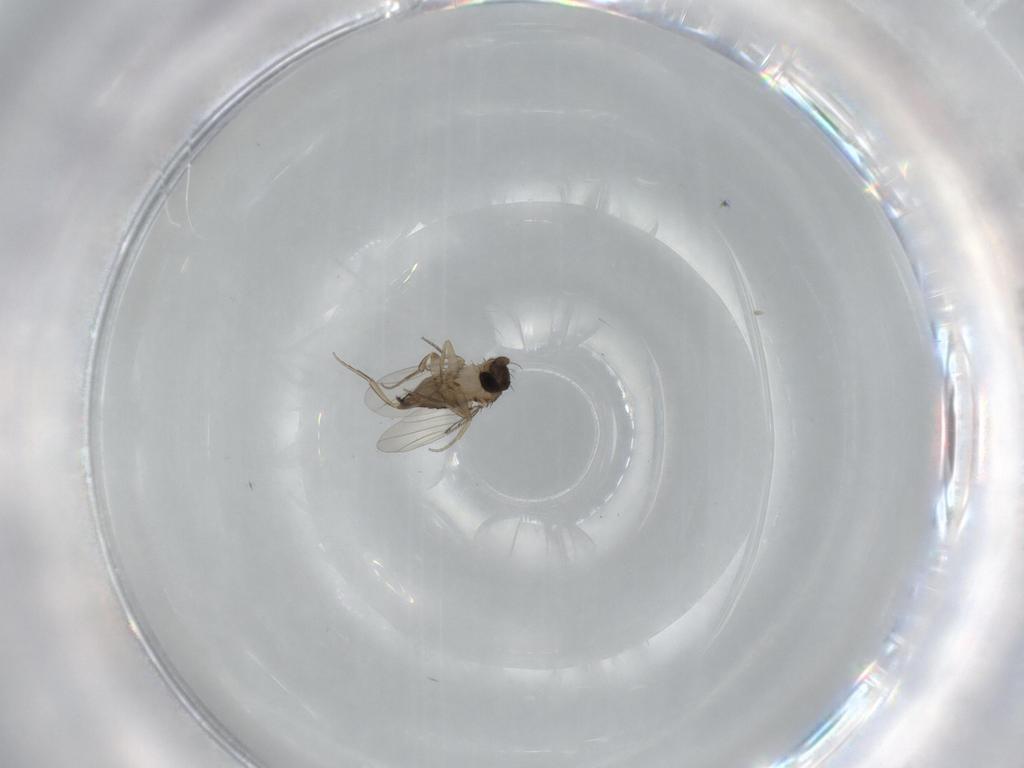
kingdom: Animalia
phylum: Arthropoda
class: Insecta
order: Diptera
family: Phoridae
